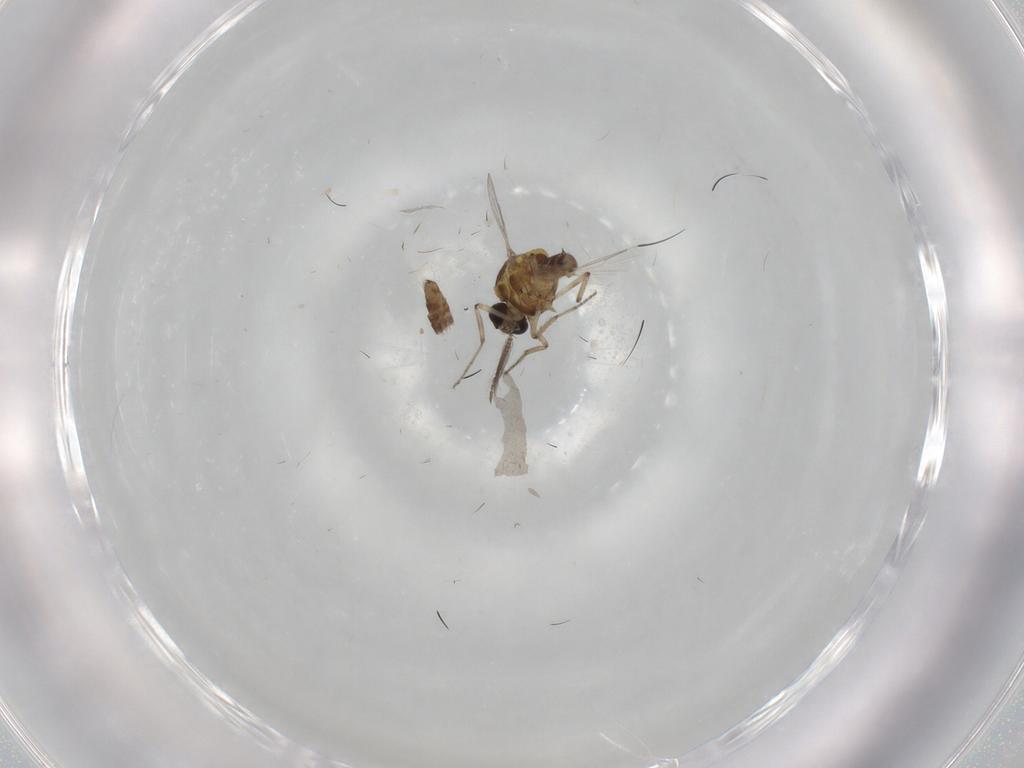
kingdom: Animalia
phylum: Arthropoda
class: Insecta
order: Diptera
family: Ceratopogonidae
